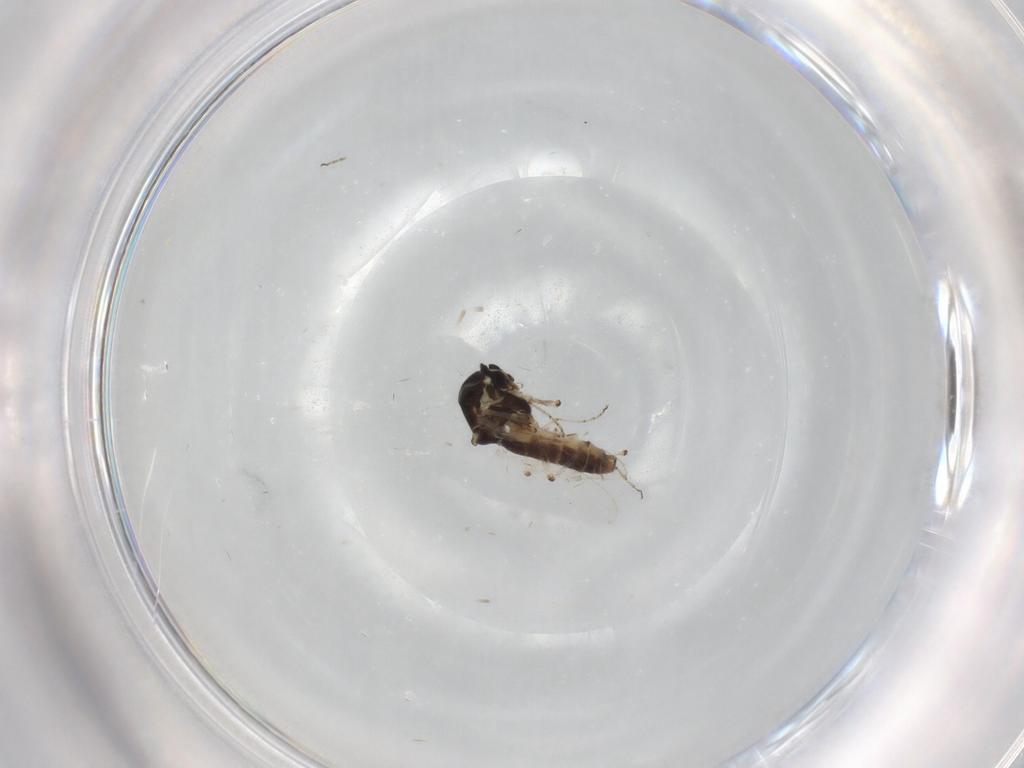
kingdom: Animalia
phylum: Arthropoda
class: Insecta
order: Diptera
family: Ceratopogonidae
